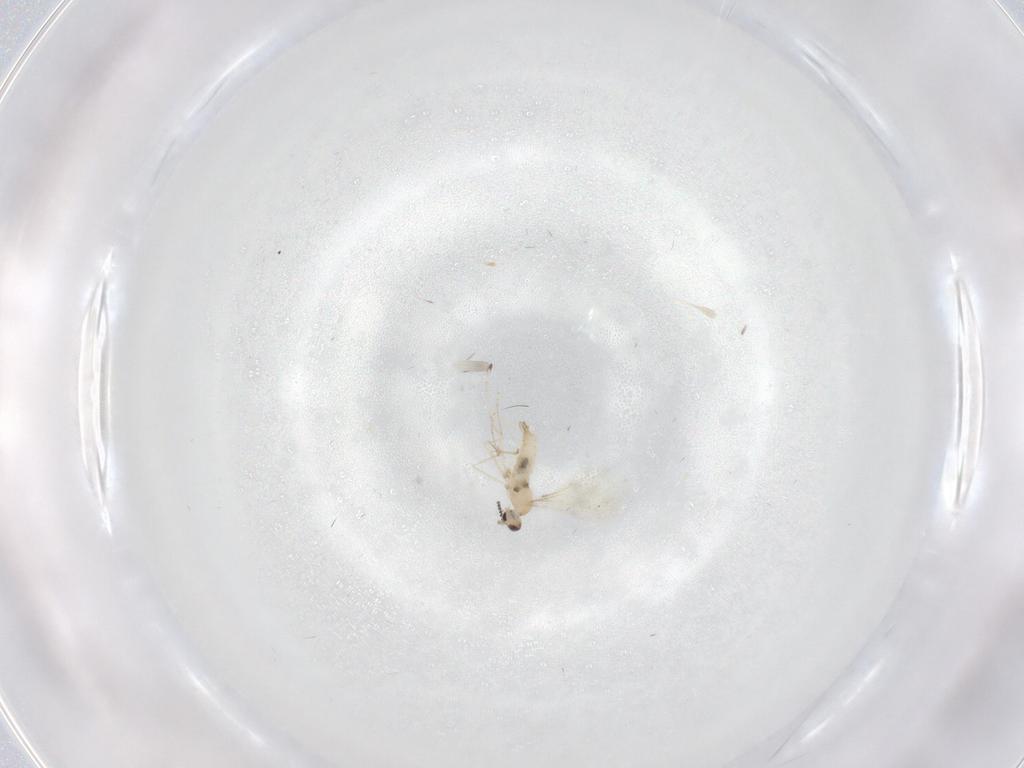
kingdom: Animalia
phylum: Arthropoda
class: Insecta
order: Diptera
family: Cecidomyiidae
